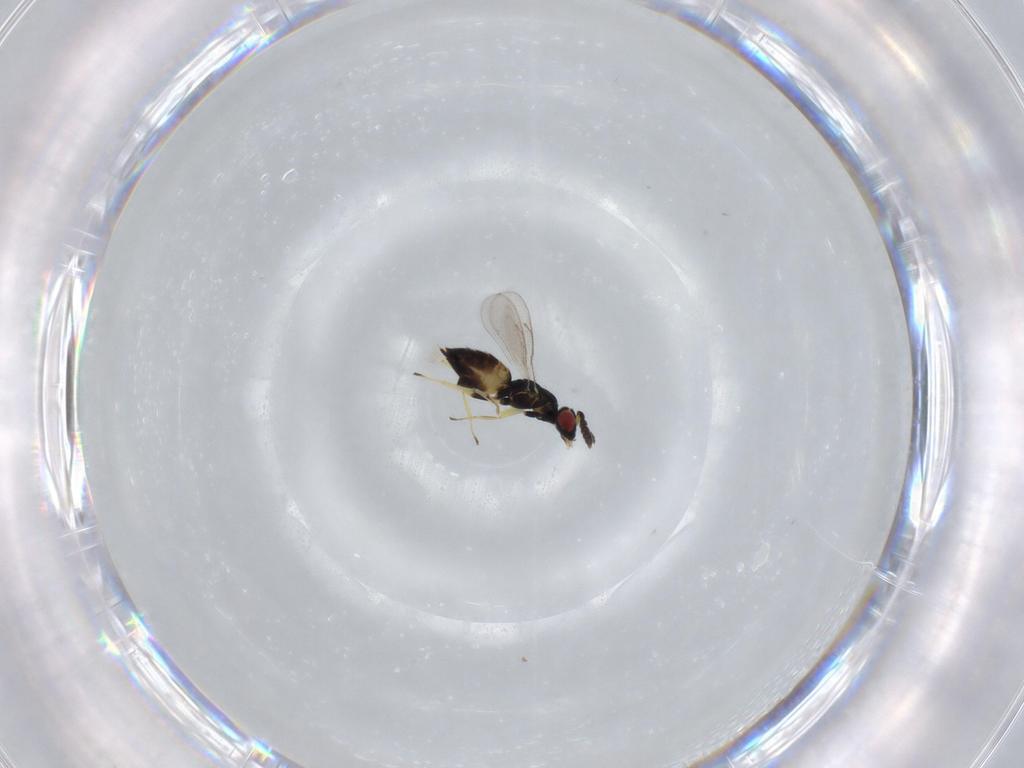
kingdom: Animalia
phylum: Arthropoda
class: Insecta
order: Hymenoptera
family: Eulophidae
